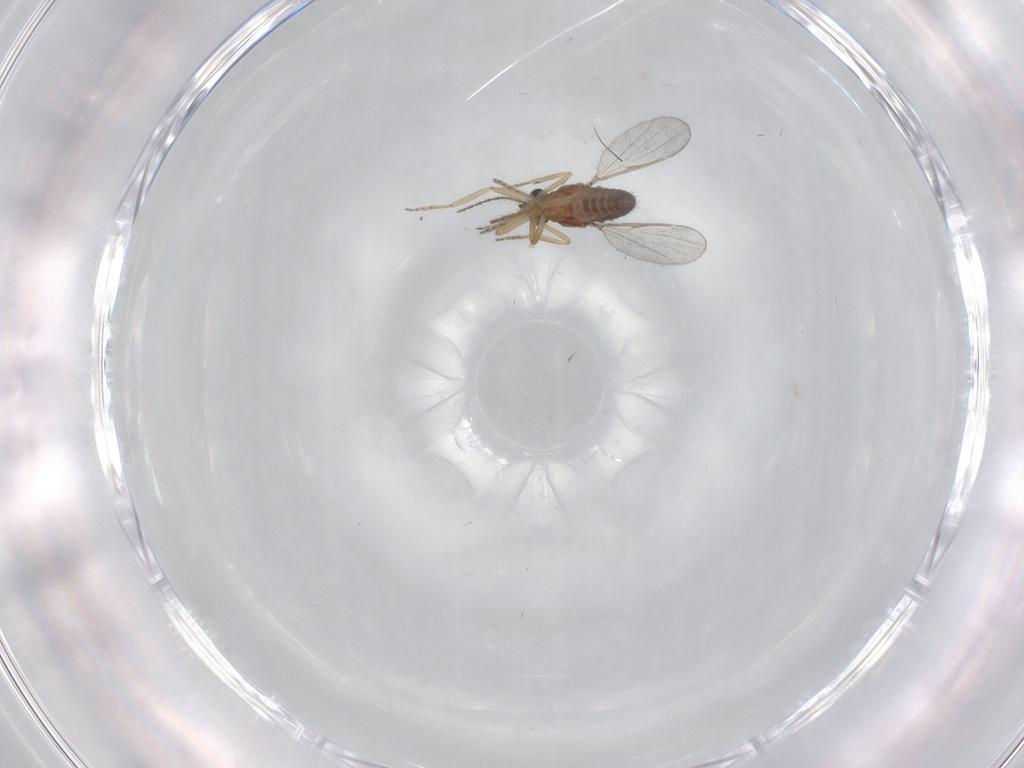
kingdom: Animalia
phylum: Arthropoda
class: Insecta
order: Diptera
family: Ceratopogonidae
